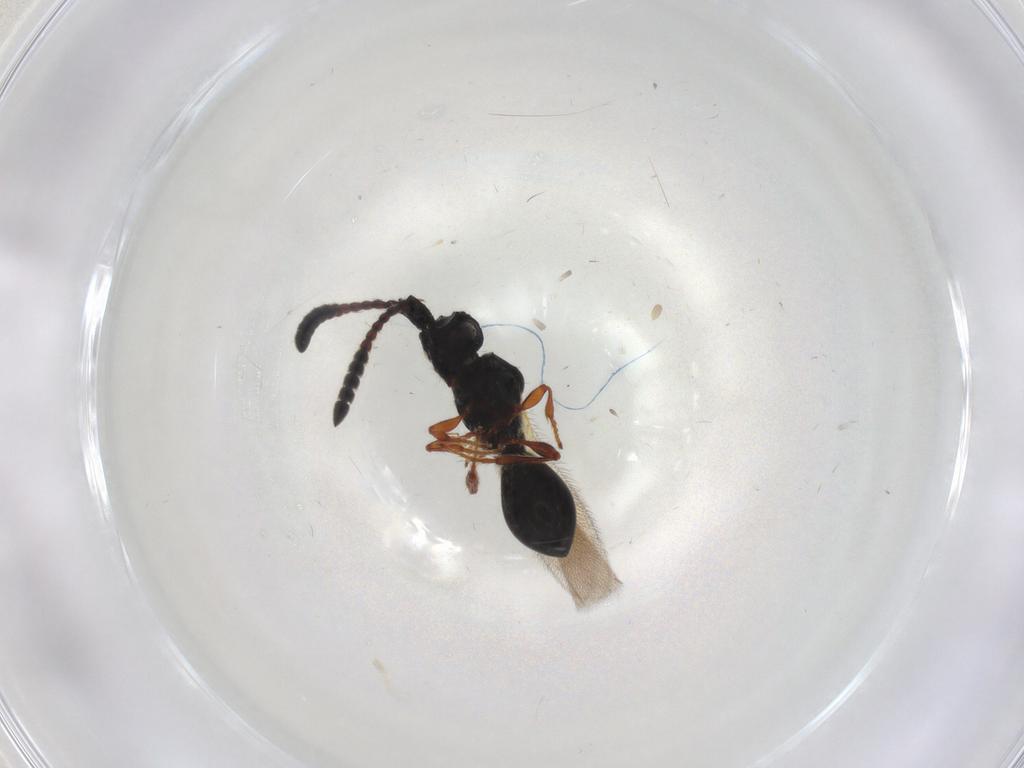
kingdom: Animalia
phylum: Arthropoda
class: Insecta
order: Hymenoptera
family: Diapriidae
